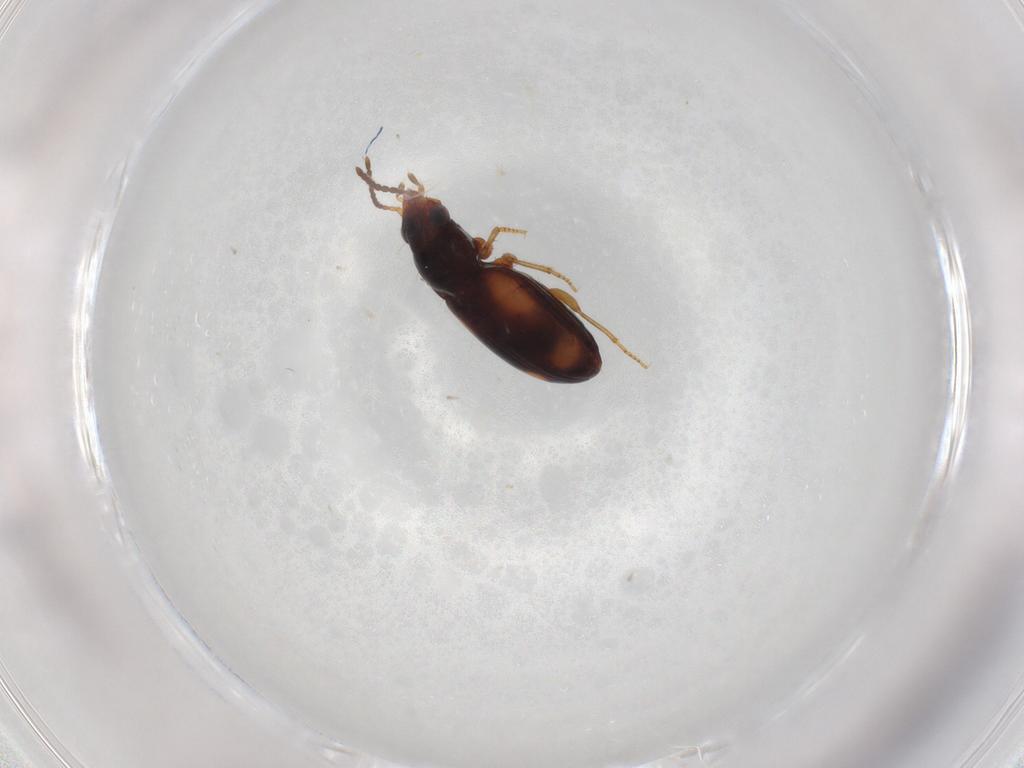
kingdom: Animalia
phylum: Arthropoda
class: Insecta
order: Coleoptera
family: Carabidae
